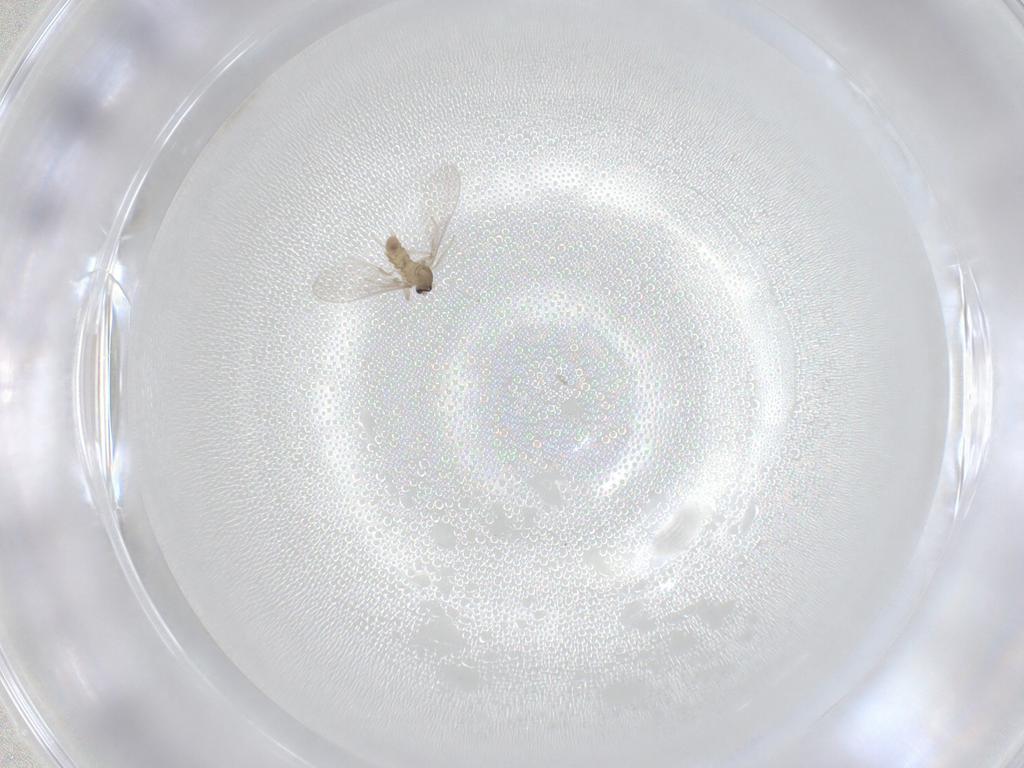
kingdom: Animalia
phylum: Arthropoda
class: Insecta
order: Diptera
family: Cecidomyiidae
